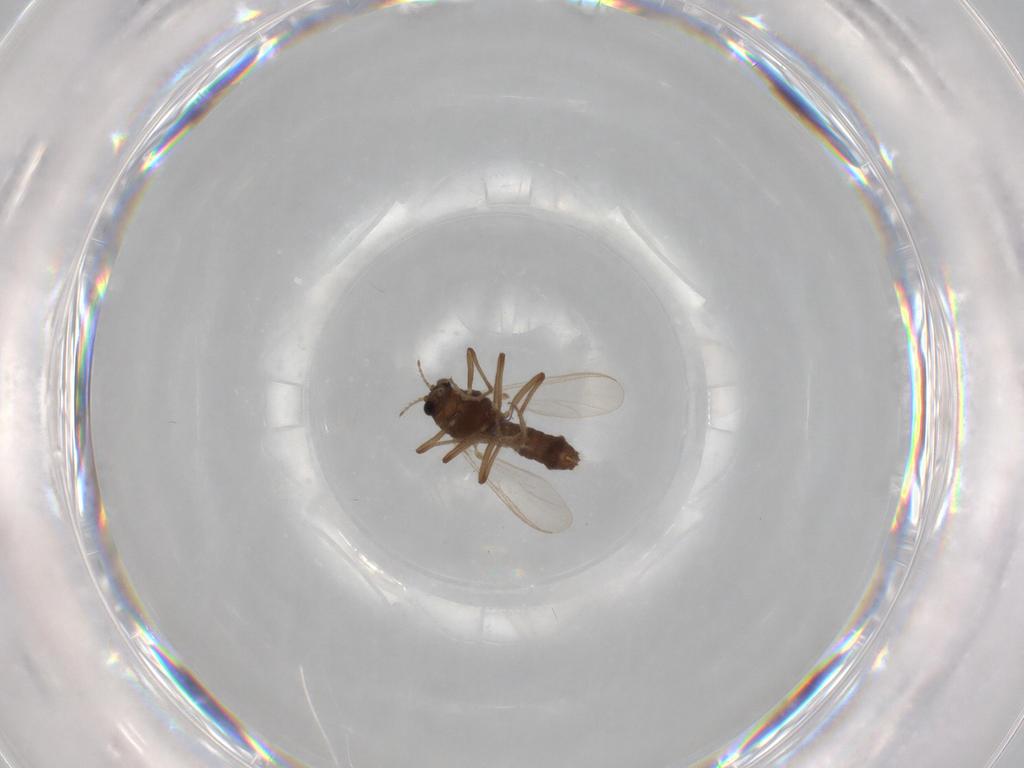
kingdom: Animalia
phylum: Arthropoda
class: Insecta
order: Diptera
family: Chironomidae
